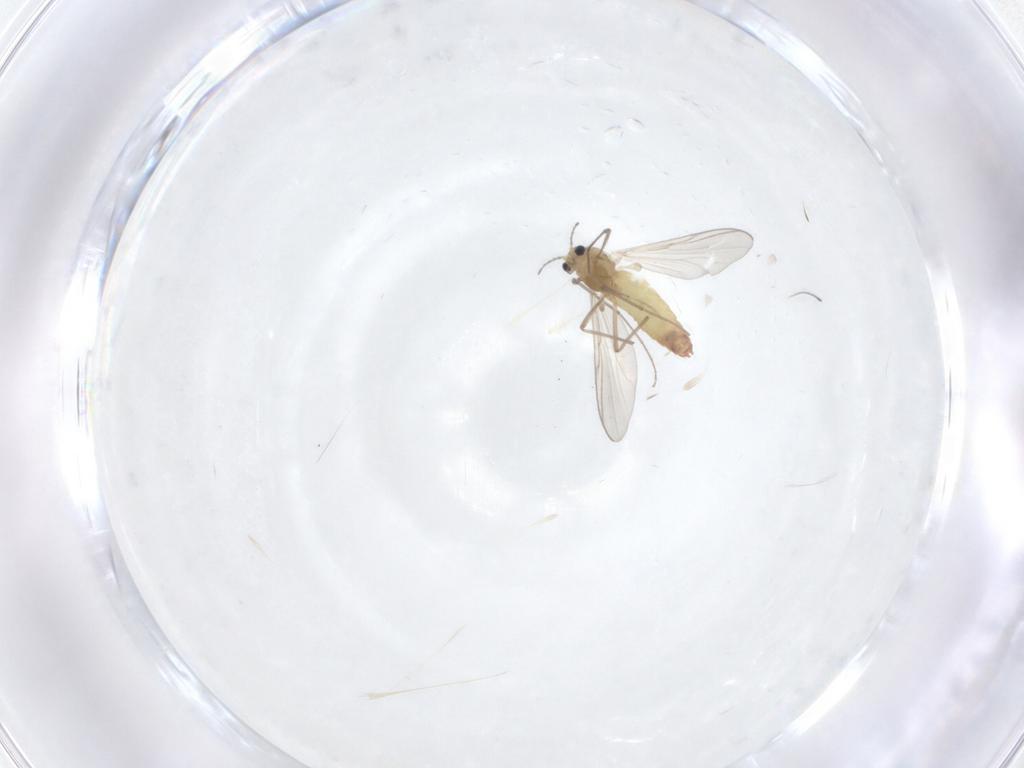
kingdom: Animalia
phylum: Arthropoda
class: Insecta
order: Diptera
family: Chironomidae
